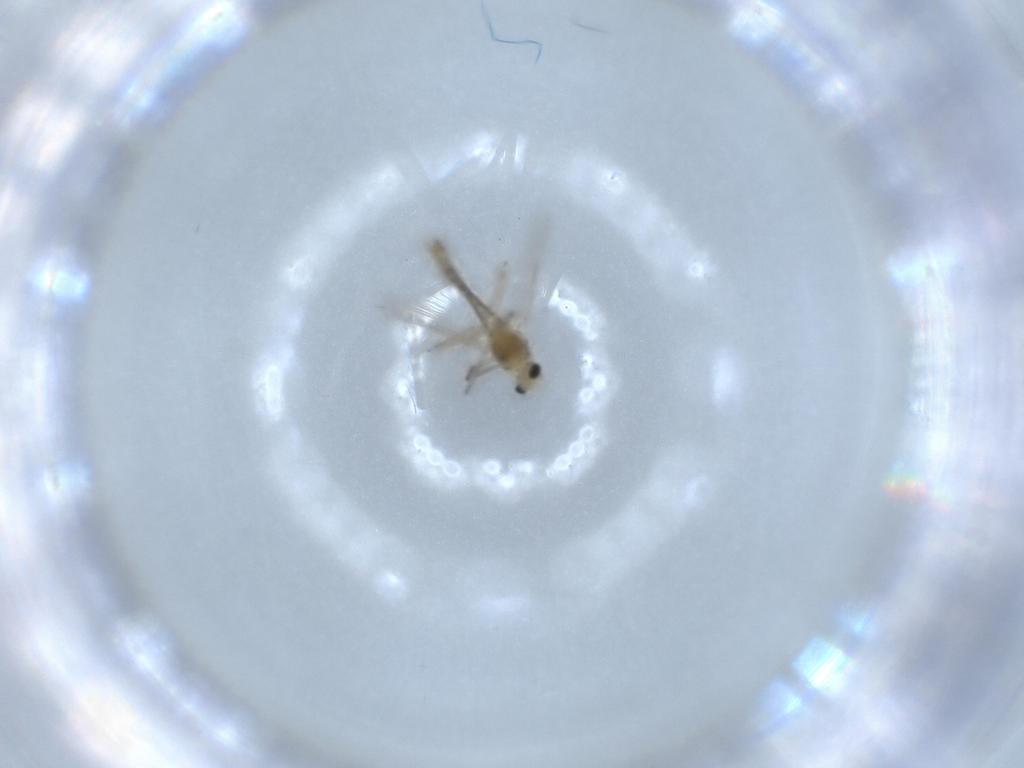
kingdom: Animalia
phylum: Arthropoda
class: Insecta
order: Diptera
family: Chironomidae
